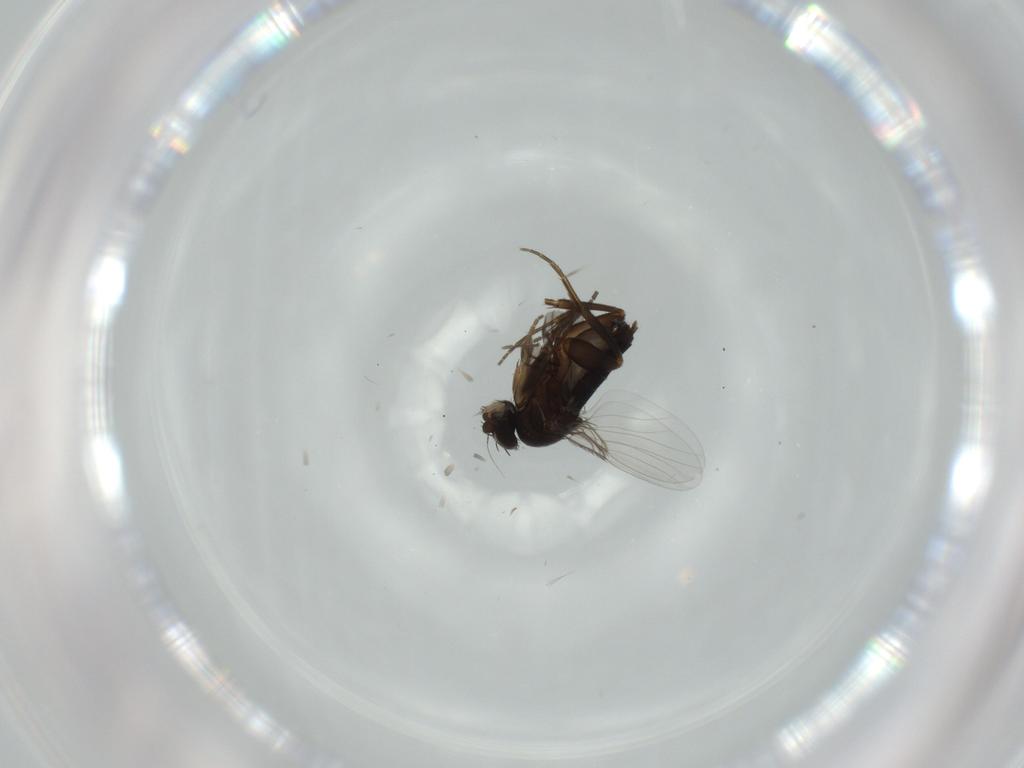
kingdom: Animalia
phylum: Arthropoda
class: Insecta
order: Diptera
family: Phoridae
